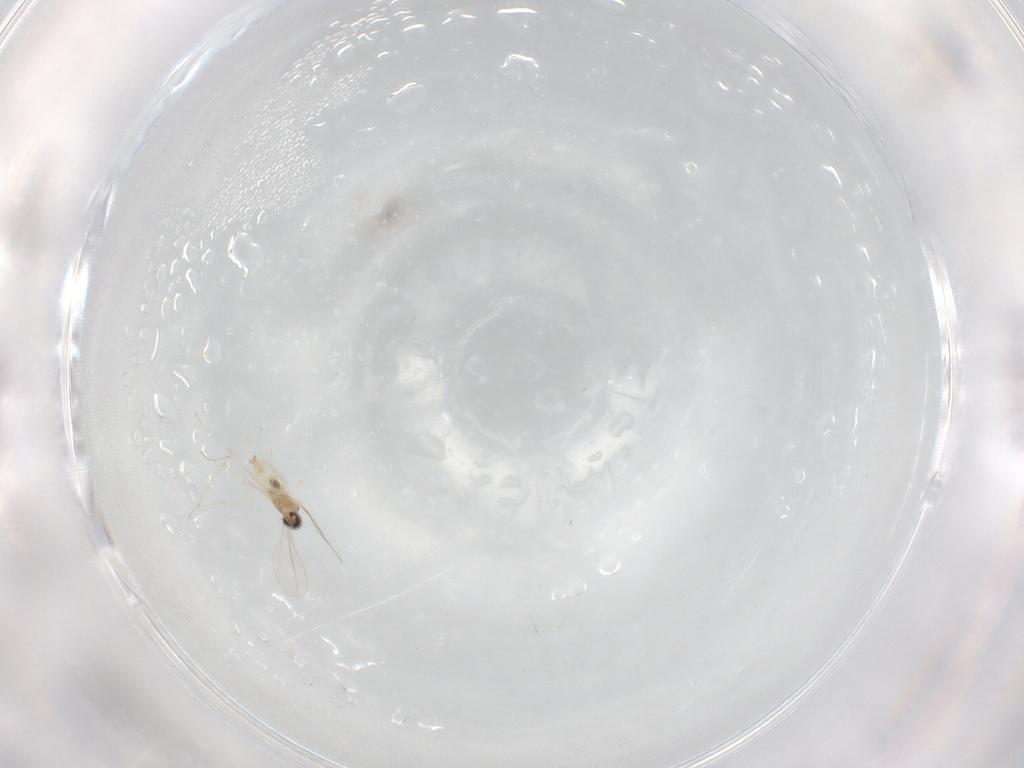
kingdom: Animalia
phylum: Arthropoda
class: Insecta
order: Diptera
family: Cecidomyiidae
